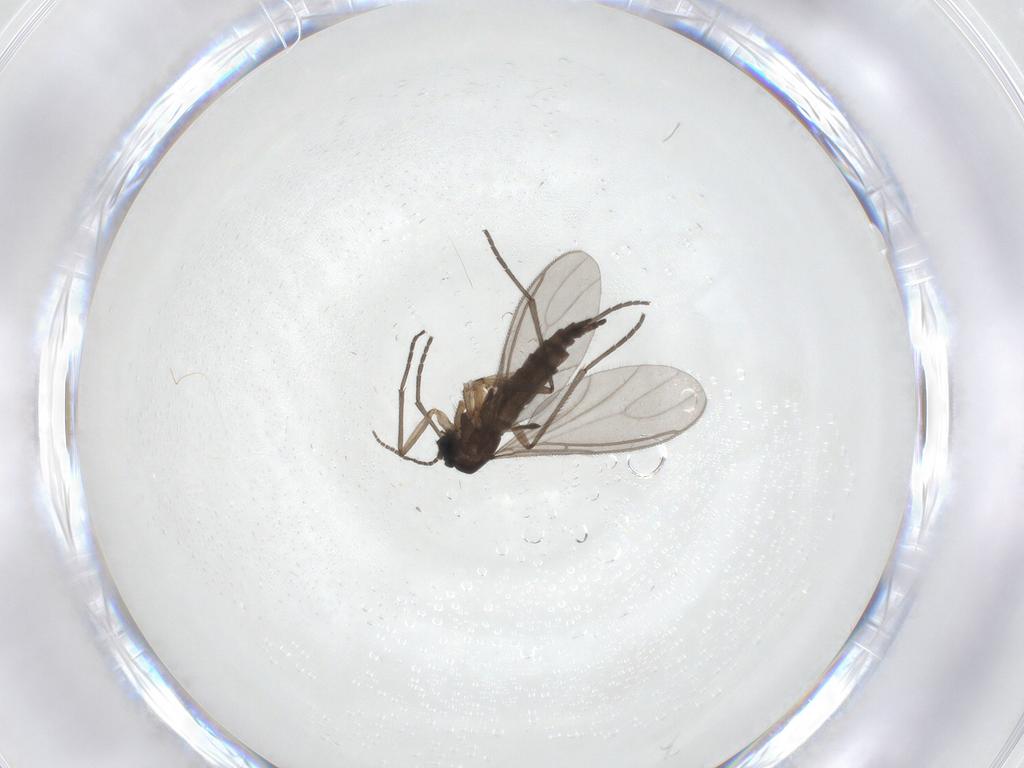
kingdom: Animalia
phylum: Arthropoda
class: Insecta
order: Diptera
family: Sciaridae
